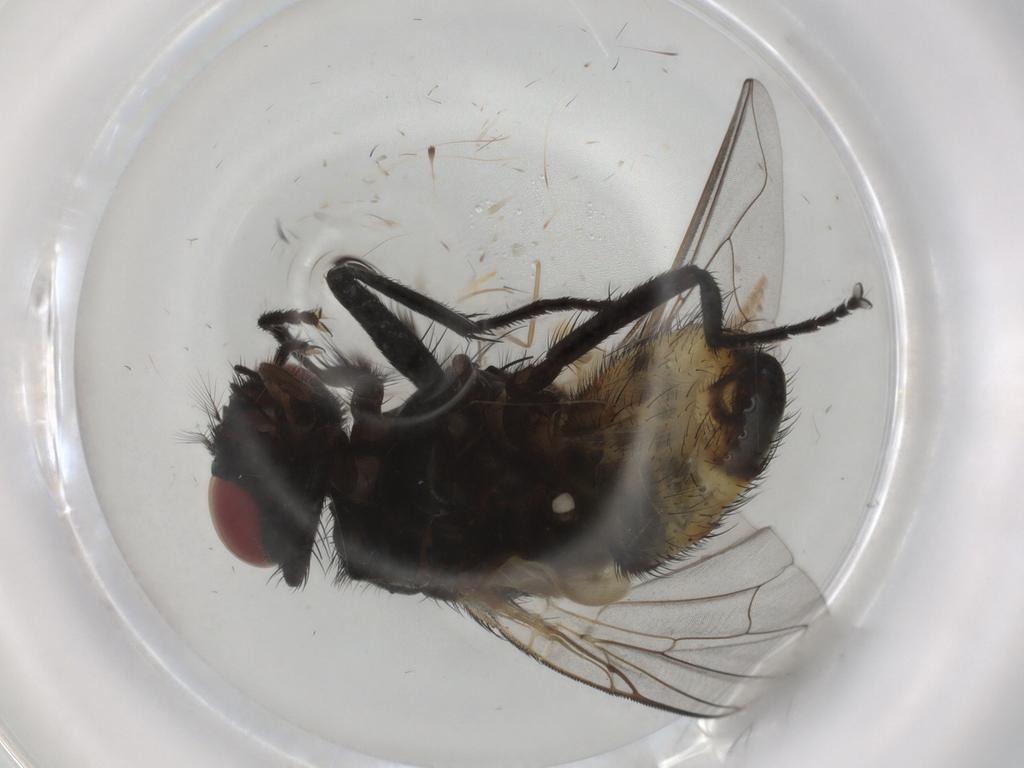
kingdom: Animalia
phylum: Arthropoda
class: Insecta
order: Diptera
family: Muscidae
